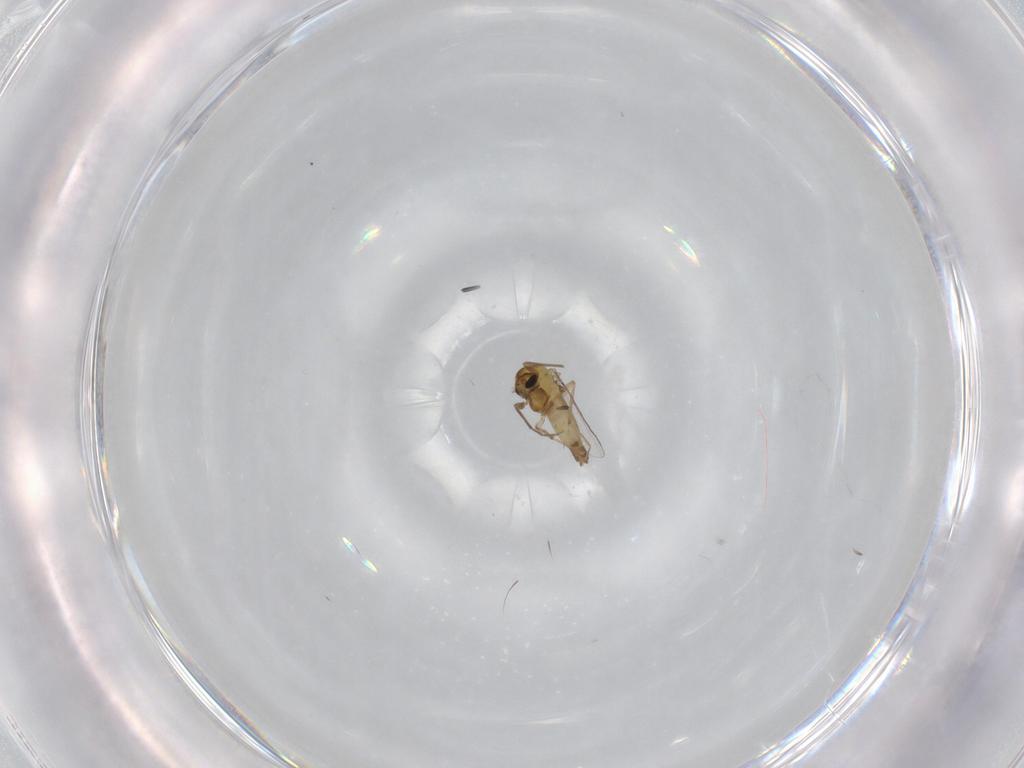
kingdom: Animalia
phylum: Arthropoda
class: Insecta
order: Diptera
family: Chironomidae
